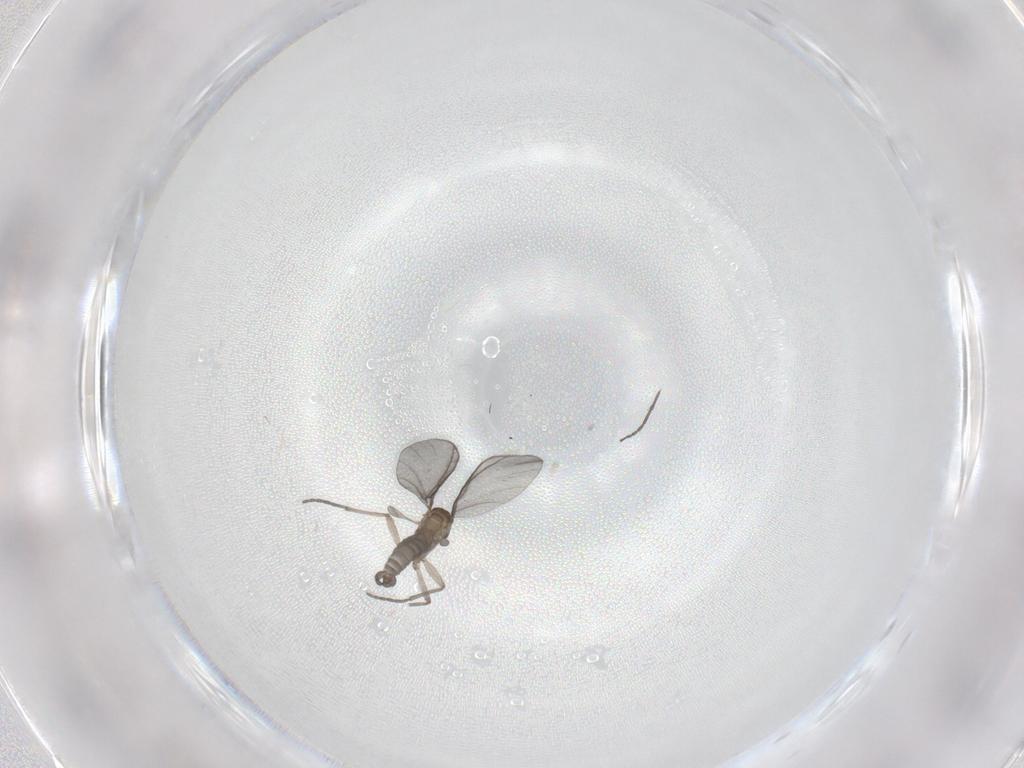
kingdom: Animalia
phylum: Arthropoda
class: Insecta
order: Diptera
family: Sciaridae
